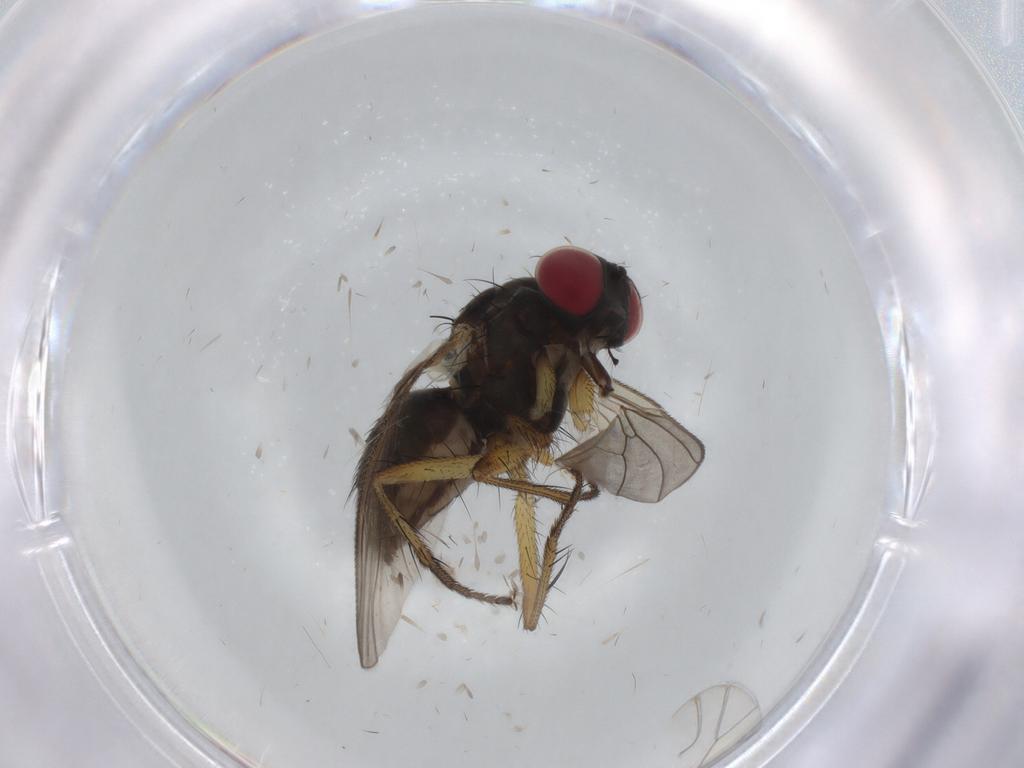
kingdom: Animalia
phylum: Arthropoda
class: Insecta
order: Diptera
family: Muscidae
